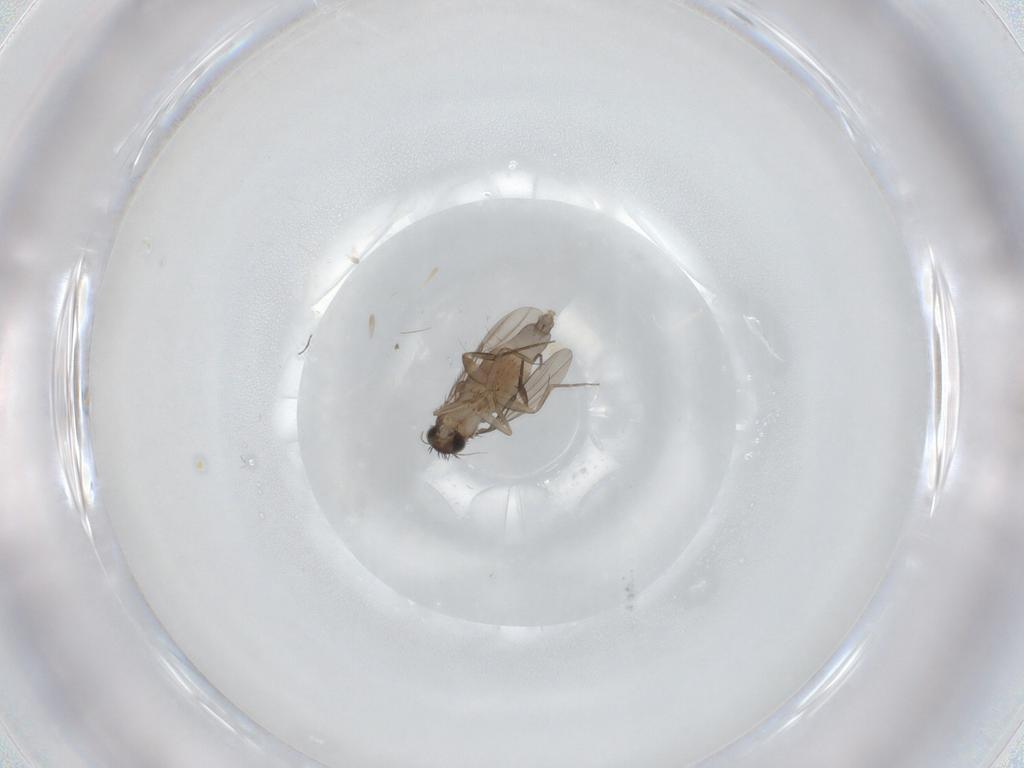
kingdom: Animalia
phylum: Arthropoda
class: Insecta
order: Diptera
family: Phoridae
